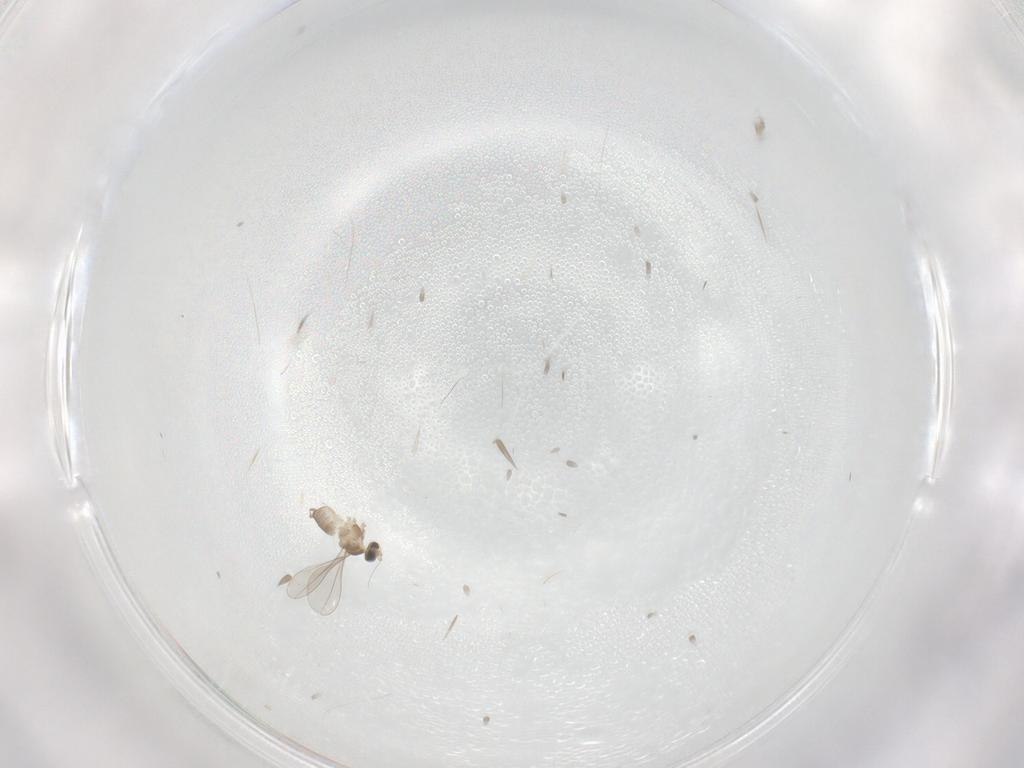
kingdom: Animalia
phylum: Arthropoda
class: Insecta
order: Diptera
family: Cecidomyiidae
